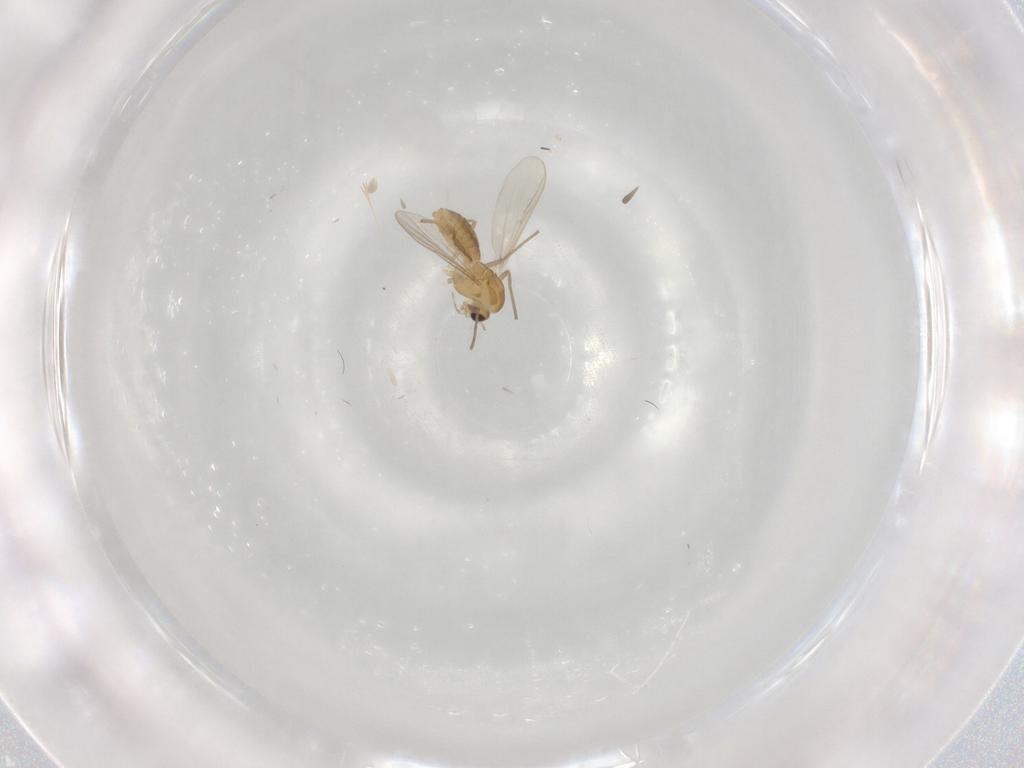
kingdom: Animalia
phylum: Arthropoda
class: Insecta
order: Diptera
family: Chironomidae
